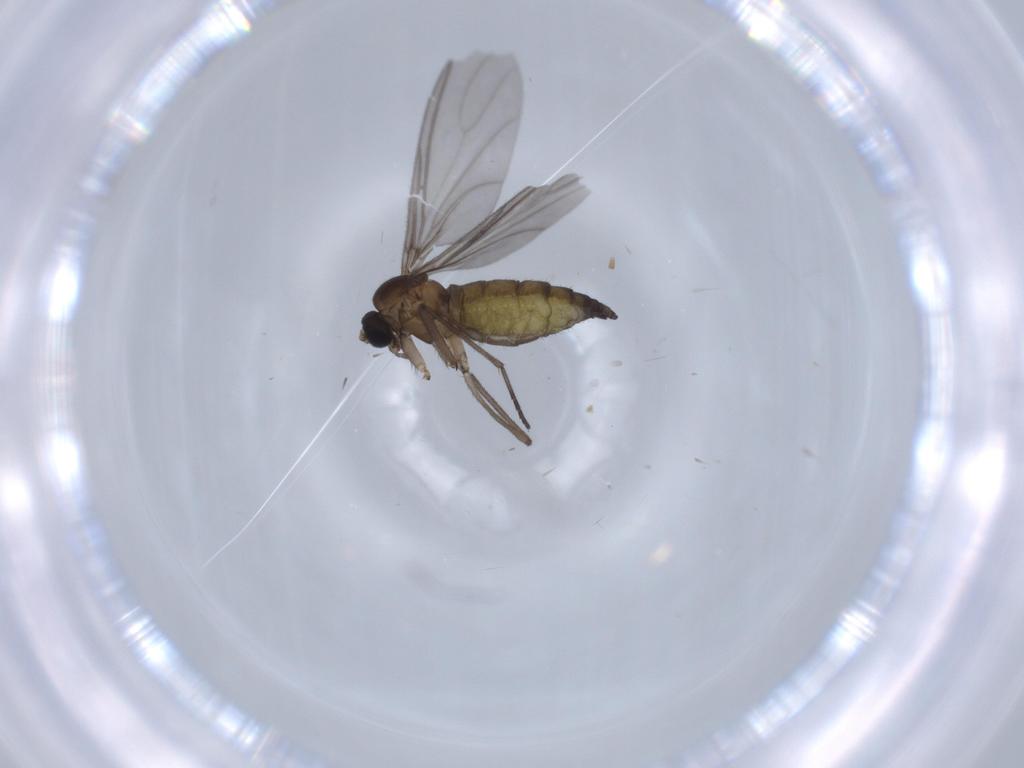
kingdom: Animalia
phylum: Arthropoda
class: Insecta
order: Diptera
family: Sciaridae
